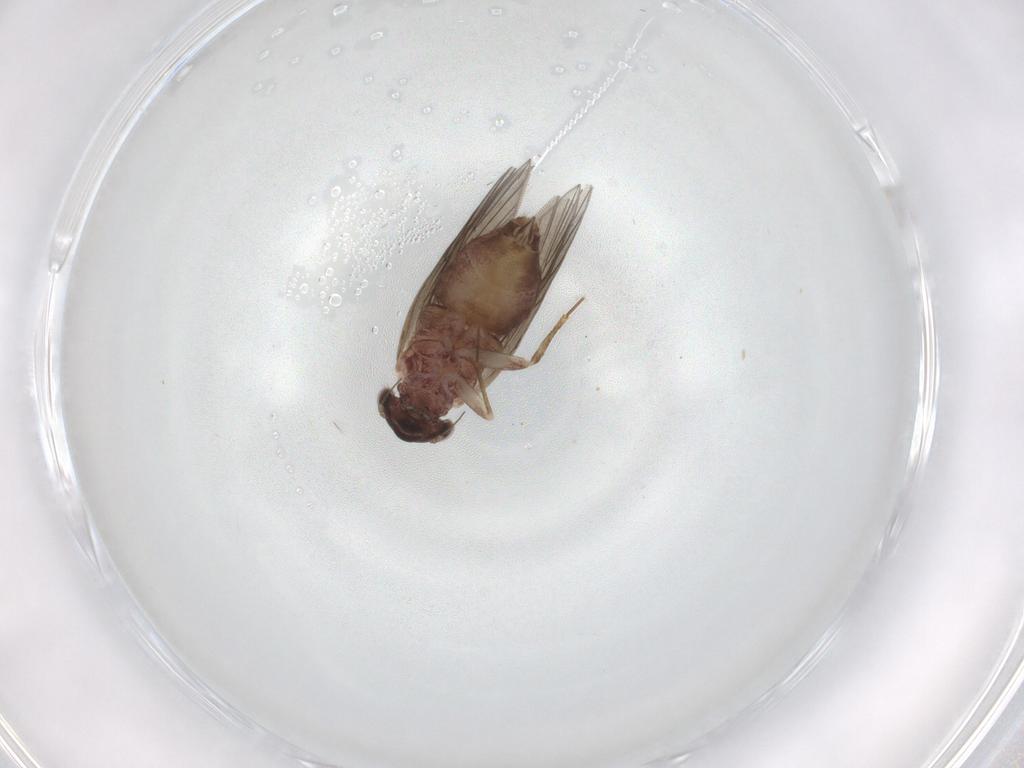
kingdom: Animalia
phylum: Arthropoda
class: Insecta
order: Psocodea
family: Lepidopsocidae
